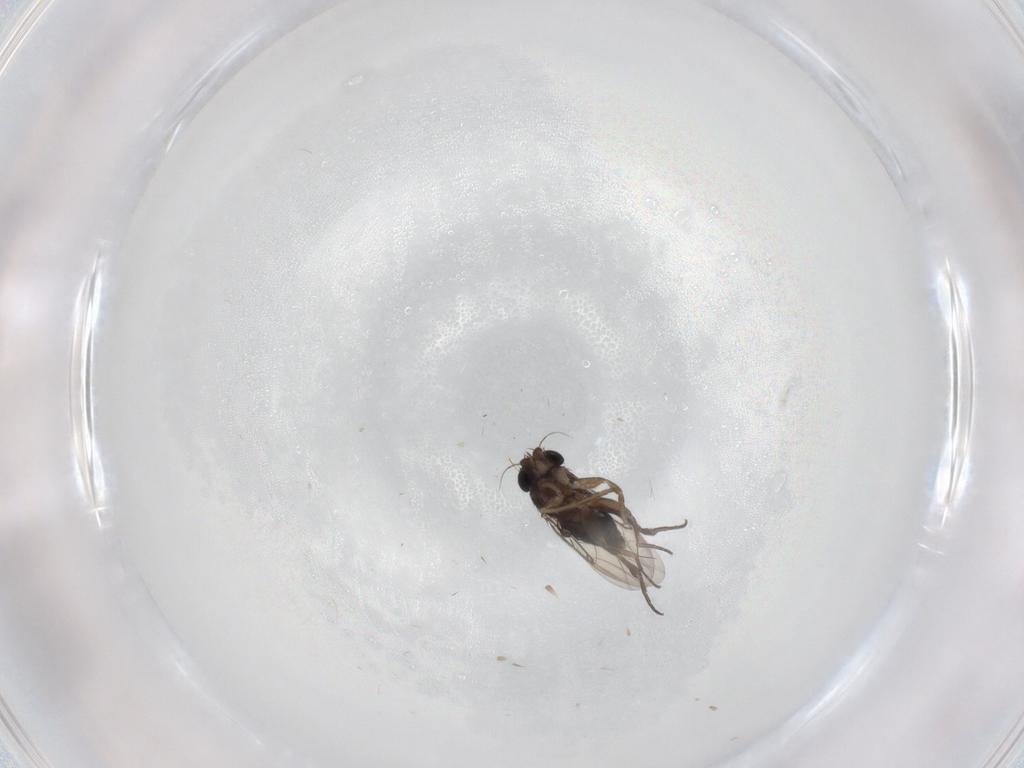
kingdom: Animalia
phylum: Arthropoda
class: Insecta
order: Diptera
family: Phoridae
